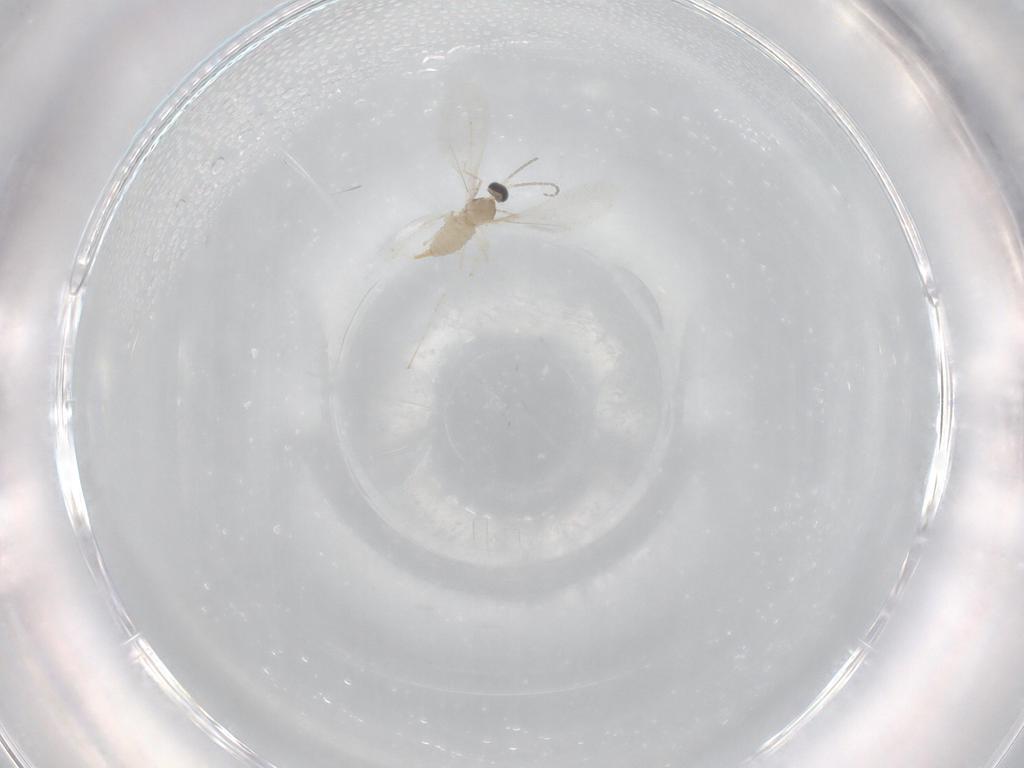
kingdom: Animalia
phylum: Arthropoda
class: Insecta
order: Diptera
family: Cecidomyiidae
